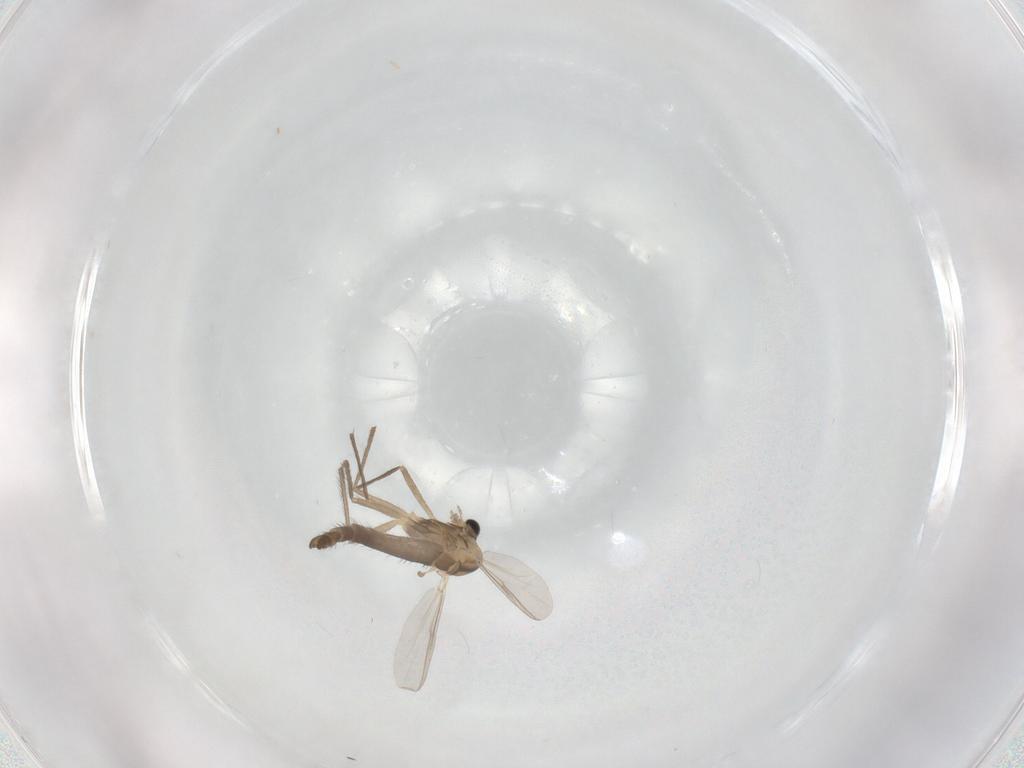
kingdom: Animalia
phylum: Arthropoda
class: Insecta
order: Diptera
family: Chironomidae
